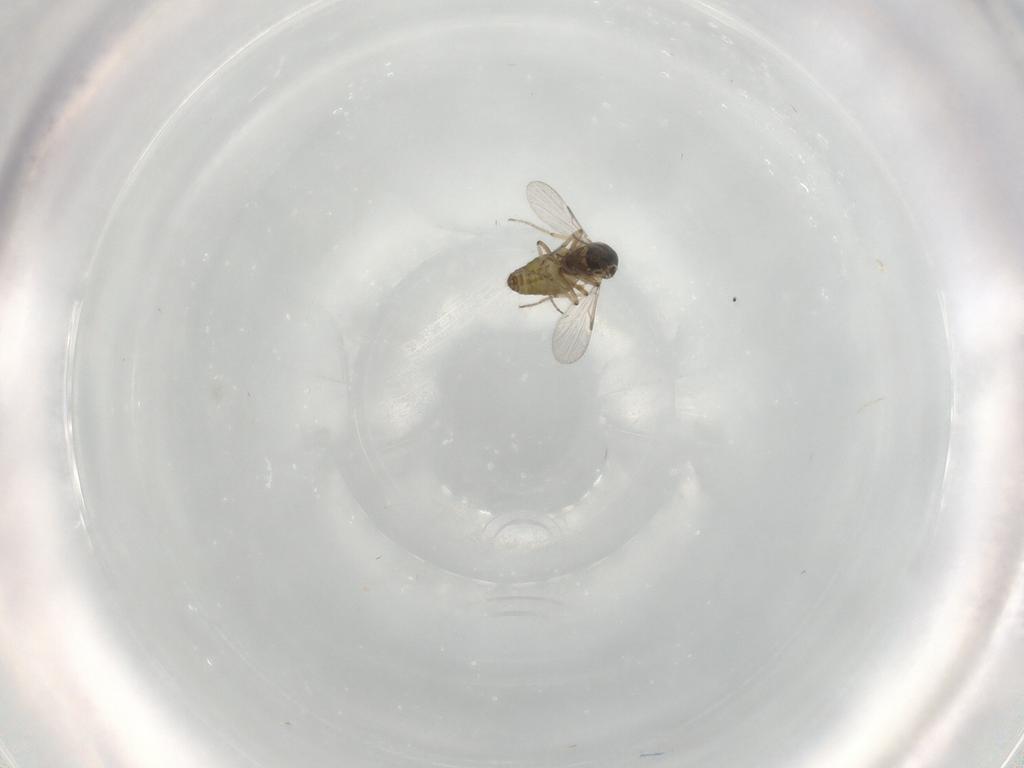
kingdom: Animalia
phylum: Arthropoda
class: Insecta
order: Diptera
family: Ceratopogonidae
